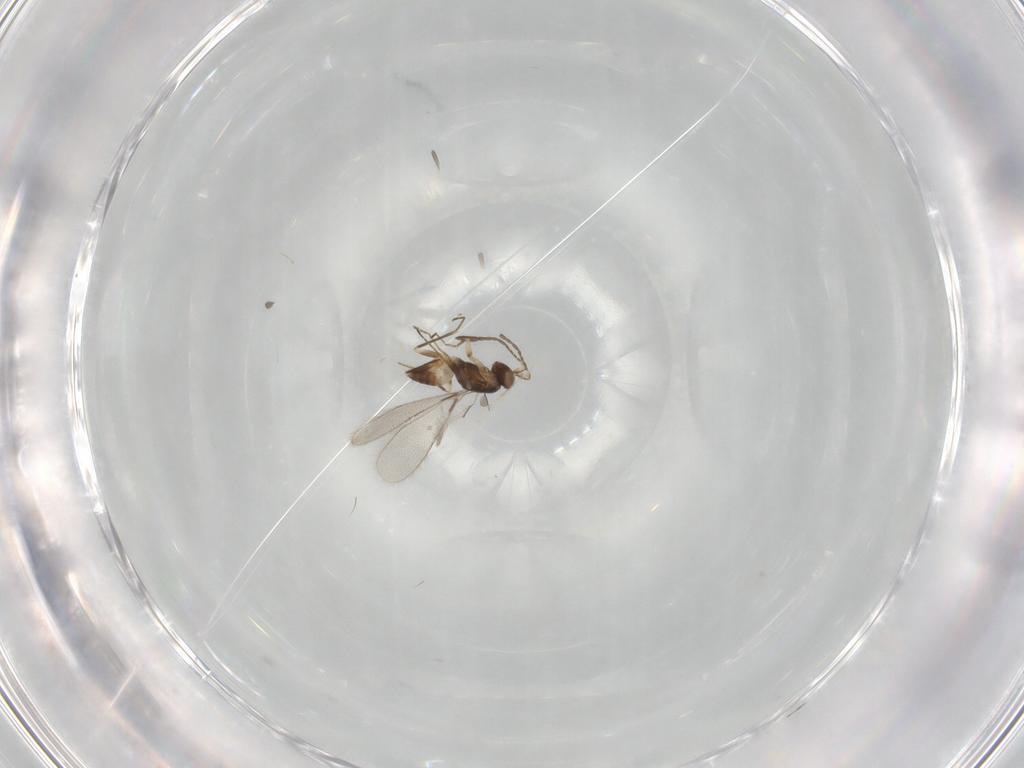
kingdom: Animalia
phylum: Arthropoda
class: Insecta
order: Hymenoptera
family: Mymaridae
